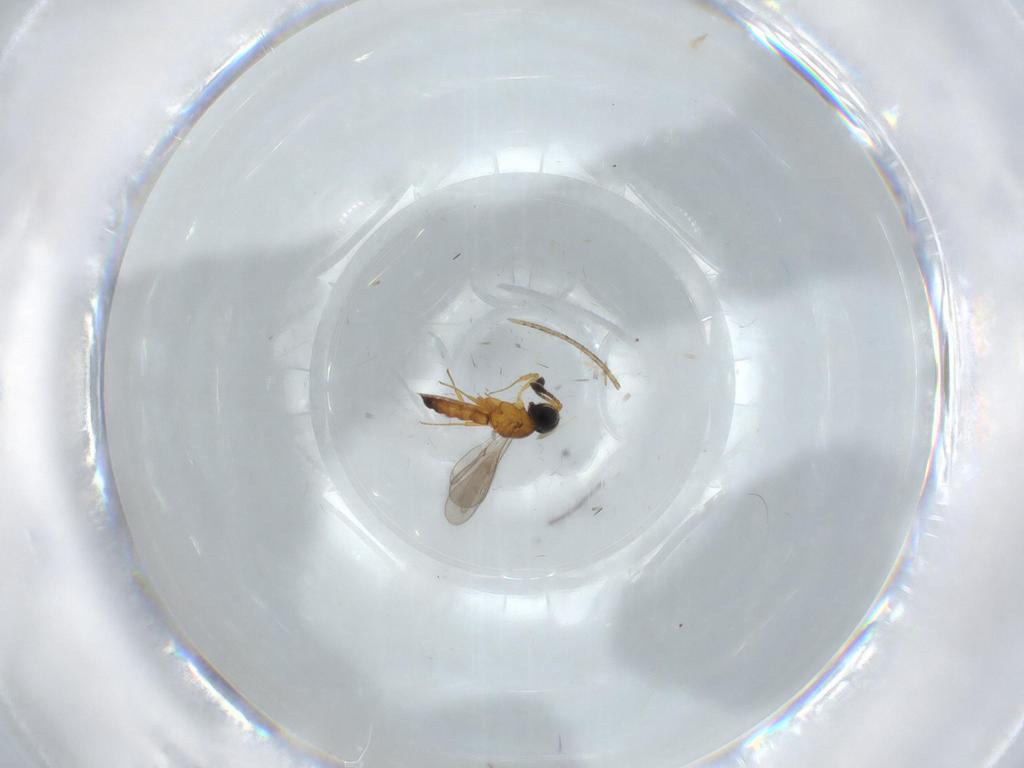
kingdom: Animalia
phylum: Arthropoda
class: Insecta
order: Hymenoptera
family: Scelionidae
